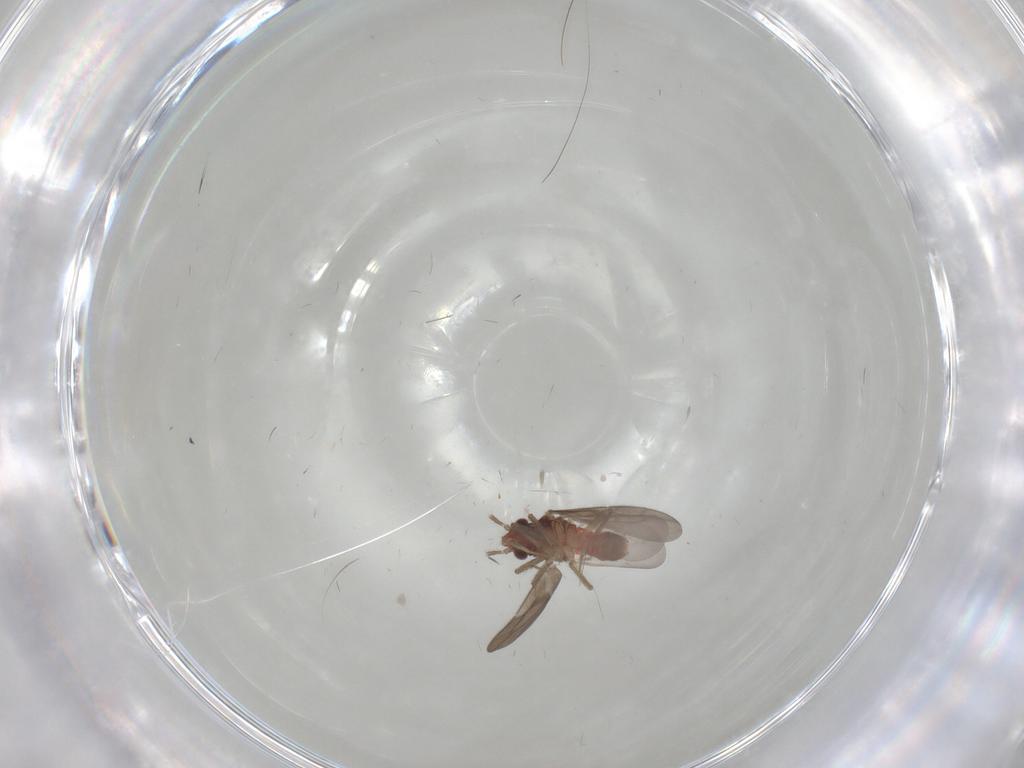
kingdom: Animalia
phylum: Arthropoda
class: Insecta
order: Hemiptera
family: Ceratocombidae
